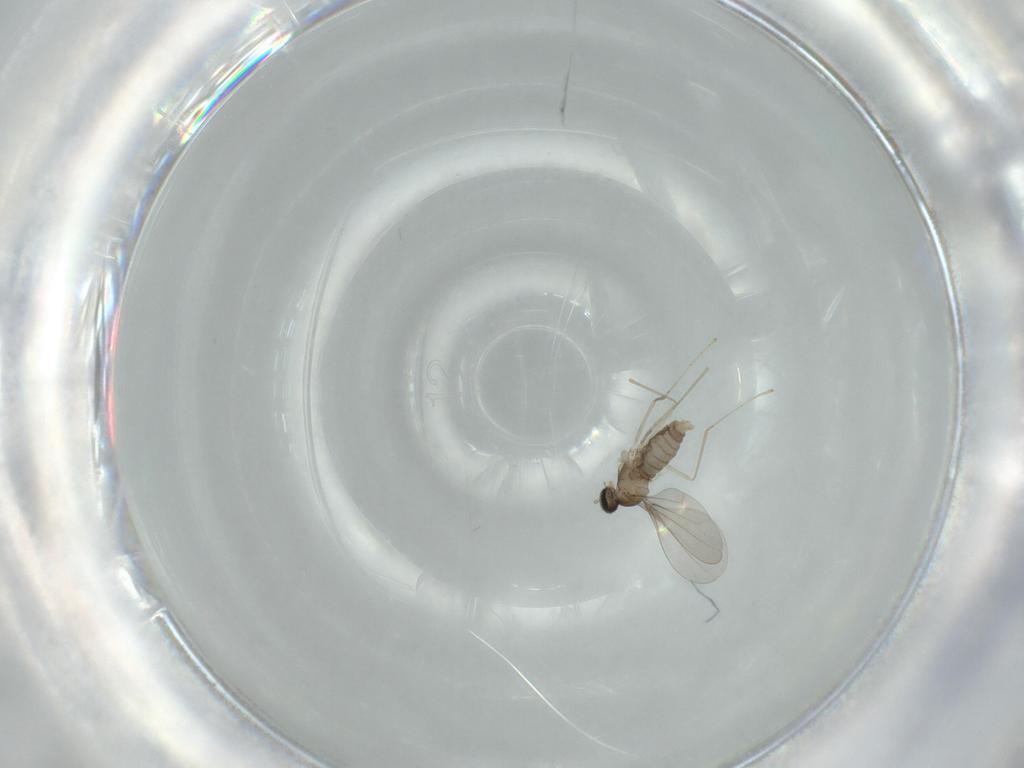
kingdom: Animalia
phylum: Arthropoda
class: Insecta
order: Diptera
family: Cecidomyiidae
